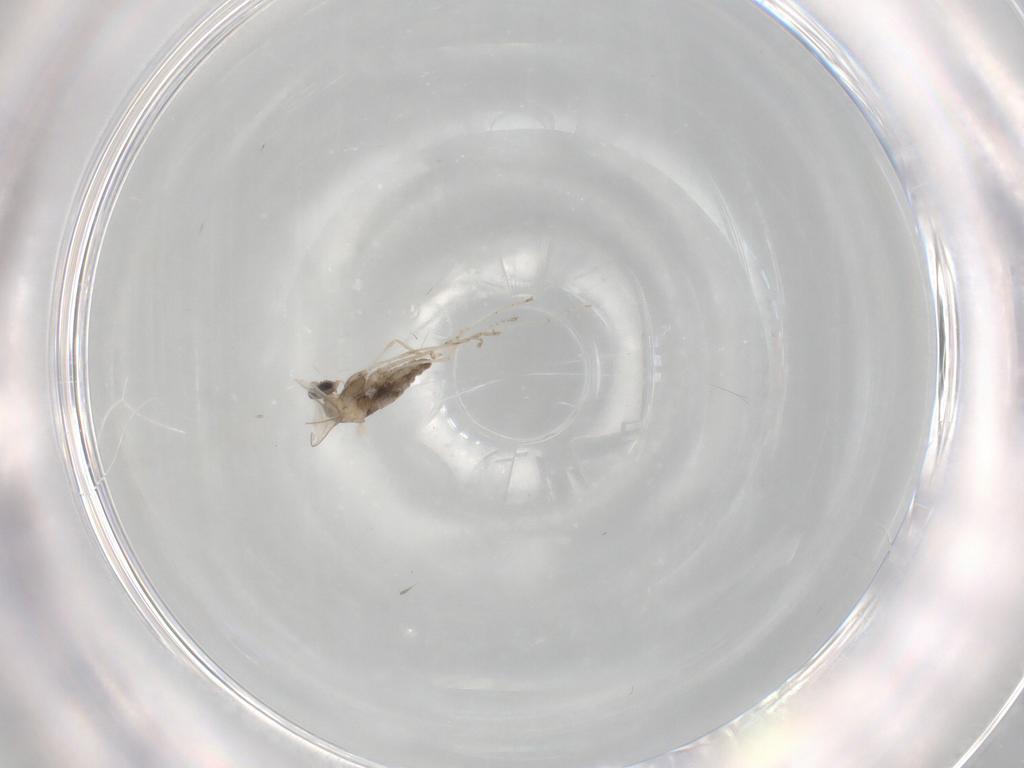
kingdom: Animalia
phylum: Arthropoda
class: Insecta
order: Diptera
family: Cecidomyiidae
